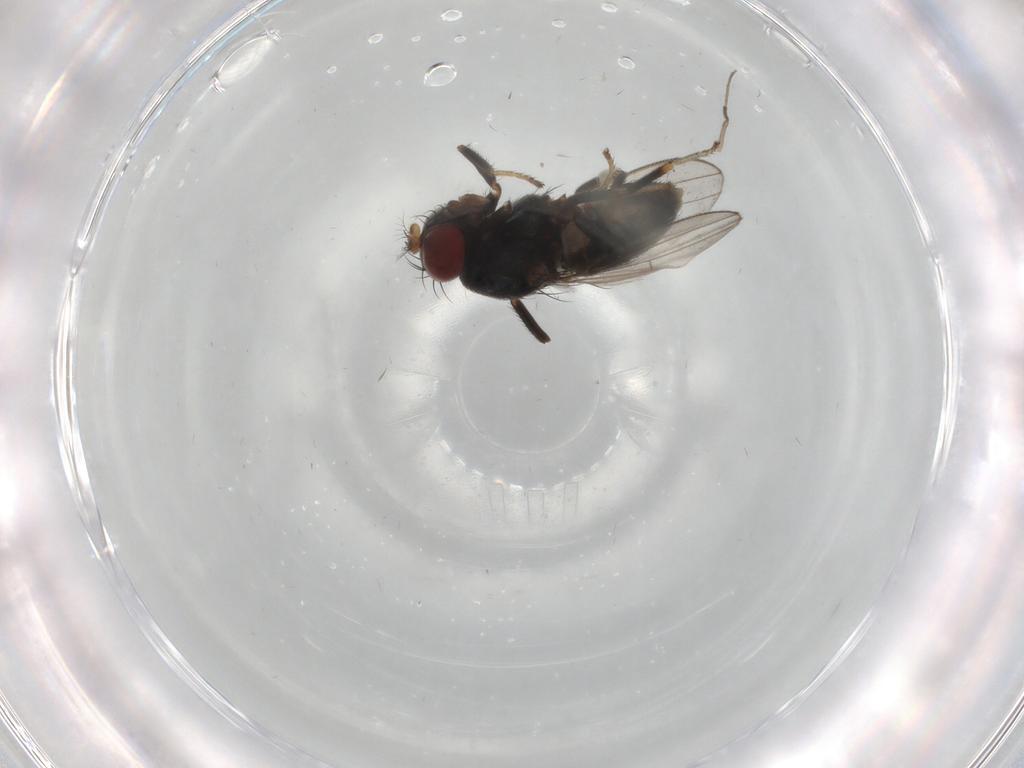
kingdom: Animalia
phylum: Arthropoda
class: Insecta
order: Diptera
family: Ephydridae
